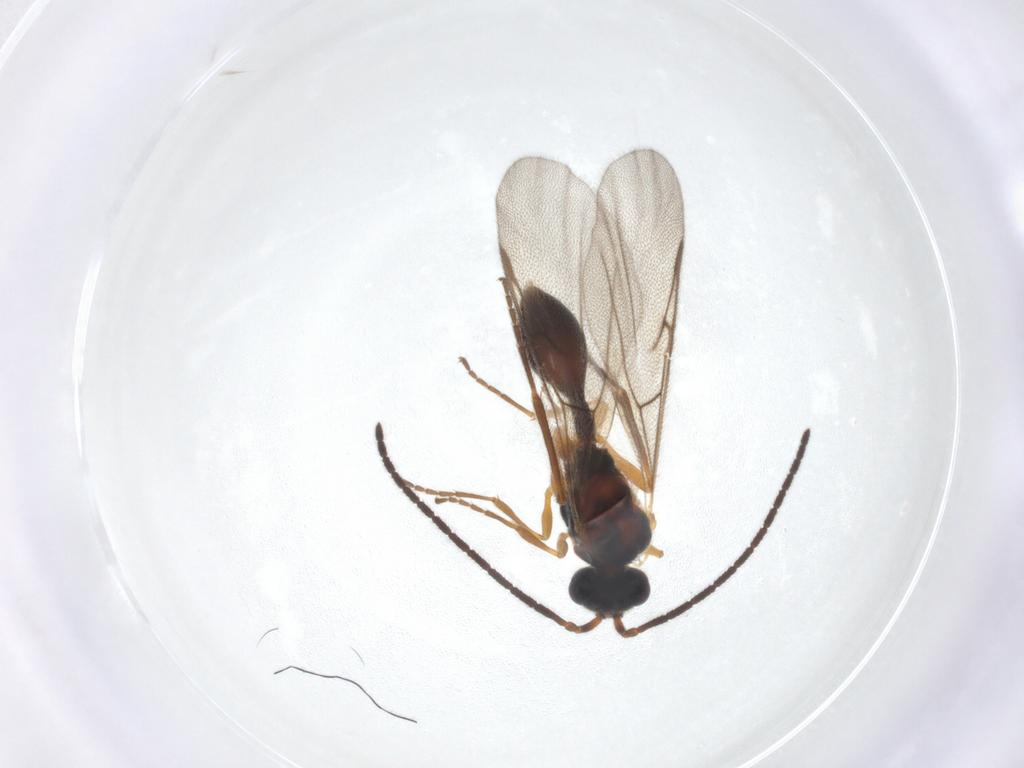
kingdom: Animalia
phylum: Arthropoda
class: Insecta
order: Hymenoptera
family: Diapriidae
